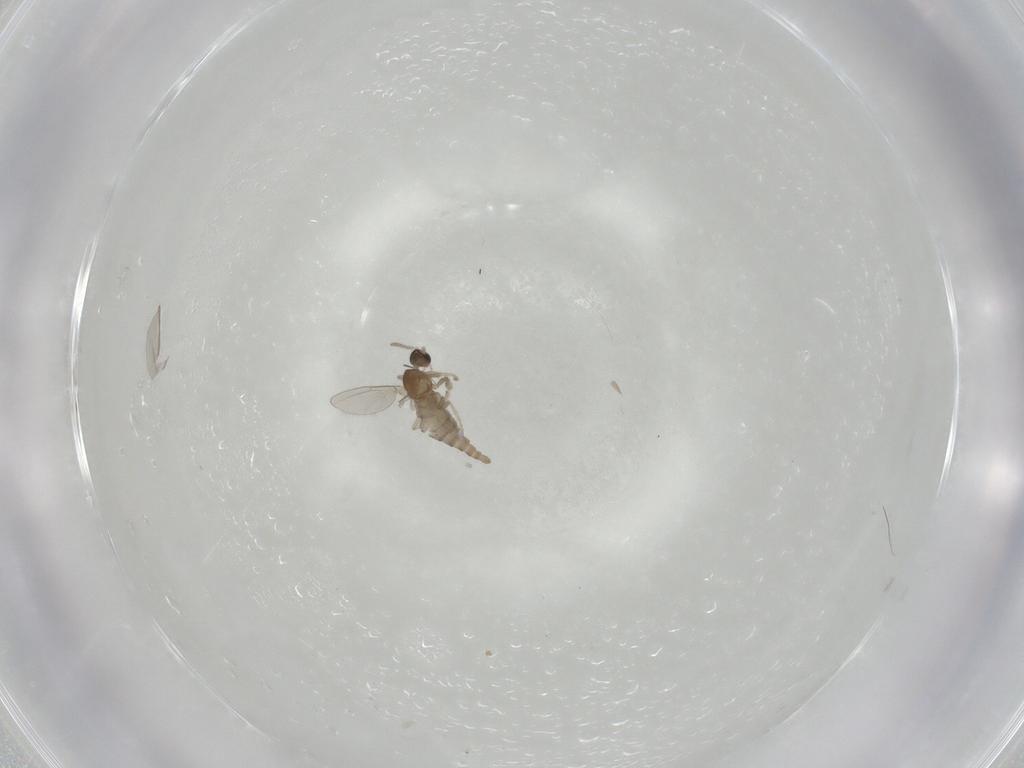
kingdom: Animalia
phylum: Arthropoda
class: Insecta
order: Diptera
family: Cecidomyiidae
